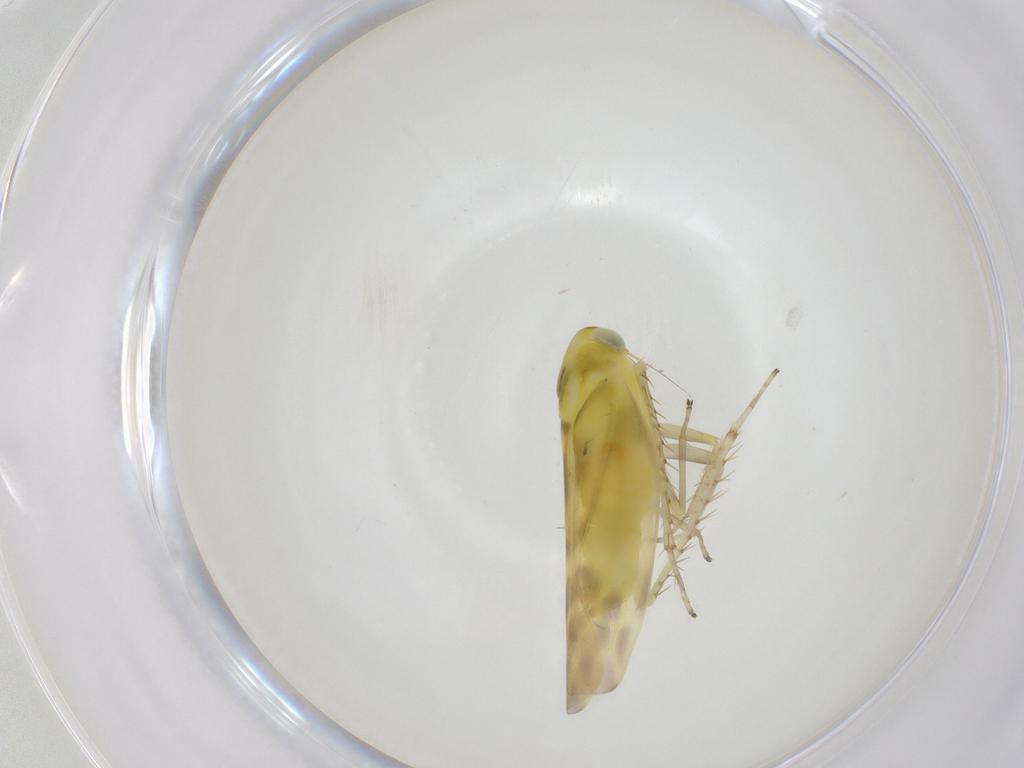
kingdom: Animalia
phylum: Arthropoda
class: Insecta
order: Hemiptera
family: Cicadellidae
